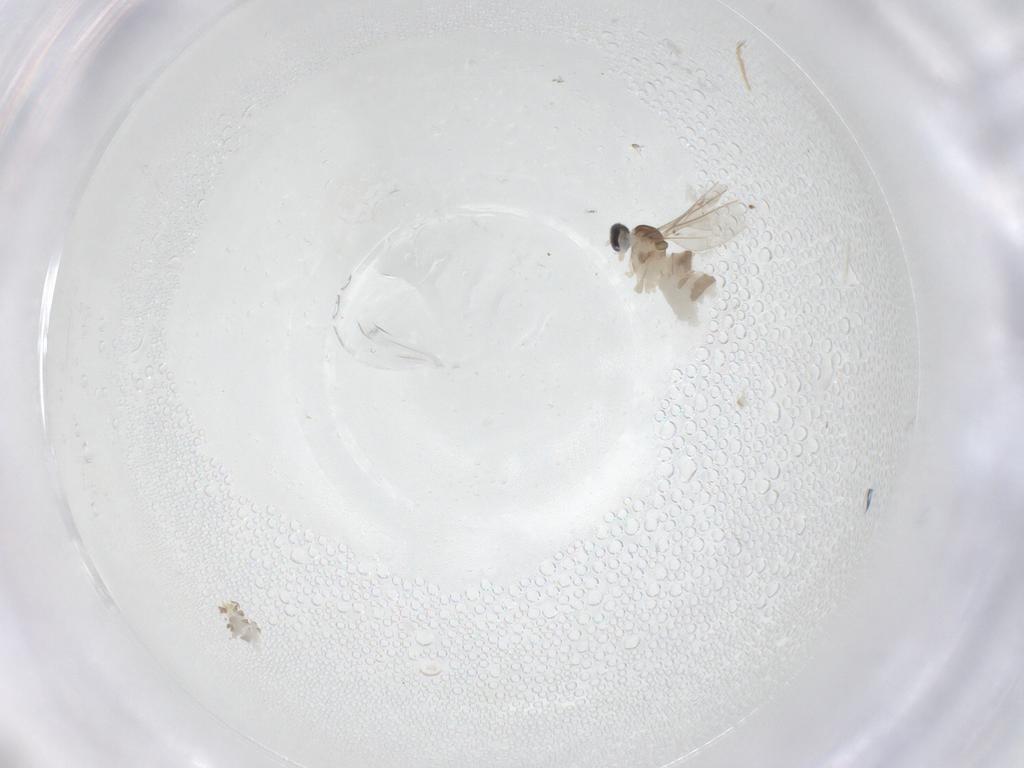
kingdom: Animalia
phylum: Arthropoda
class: Insecta
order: Diptera
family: Cecidomyiidae
